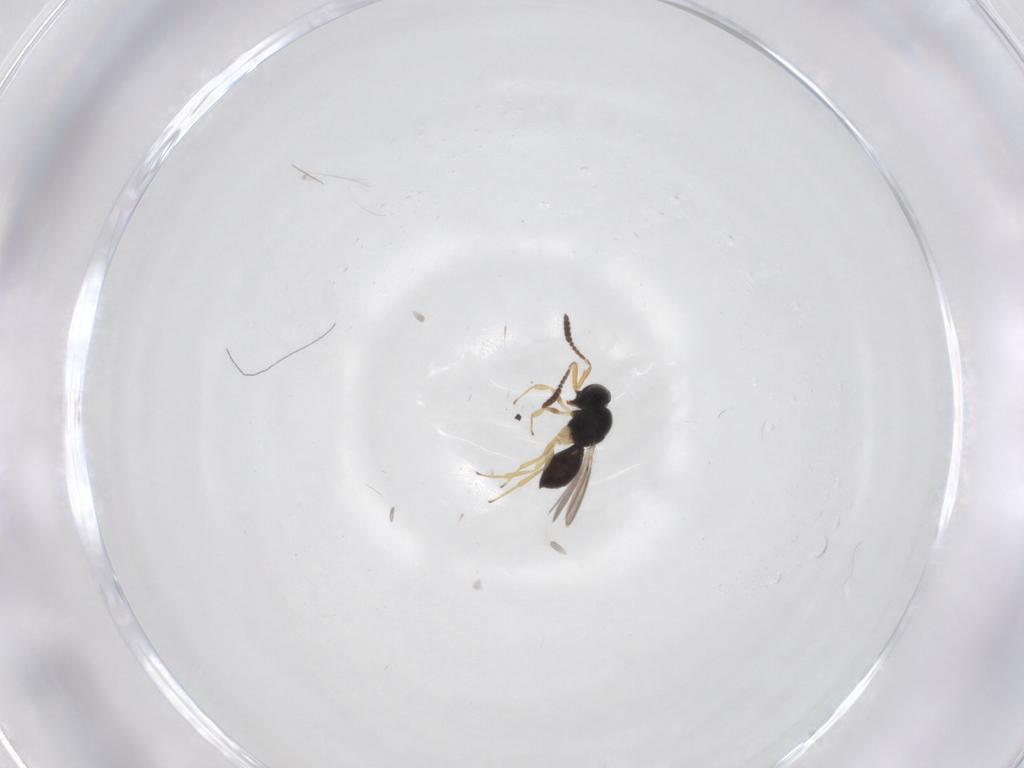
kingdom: Animalia
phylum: Arthropoda
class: Insecta
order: Hymenoptera
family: Scelionidae
